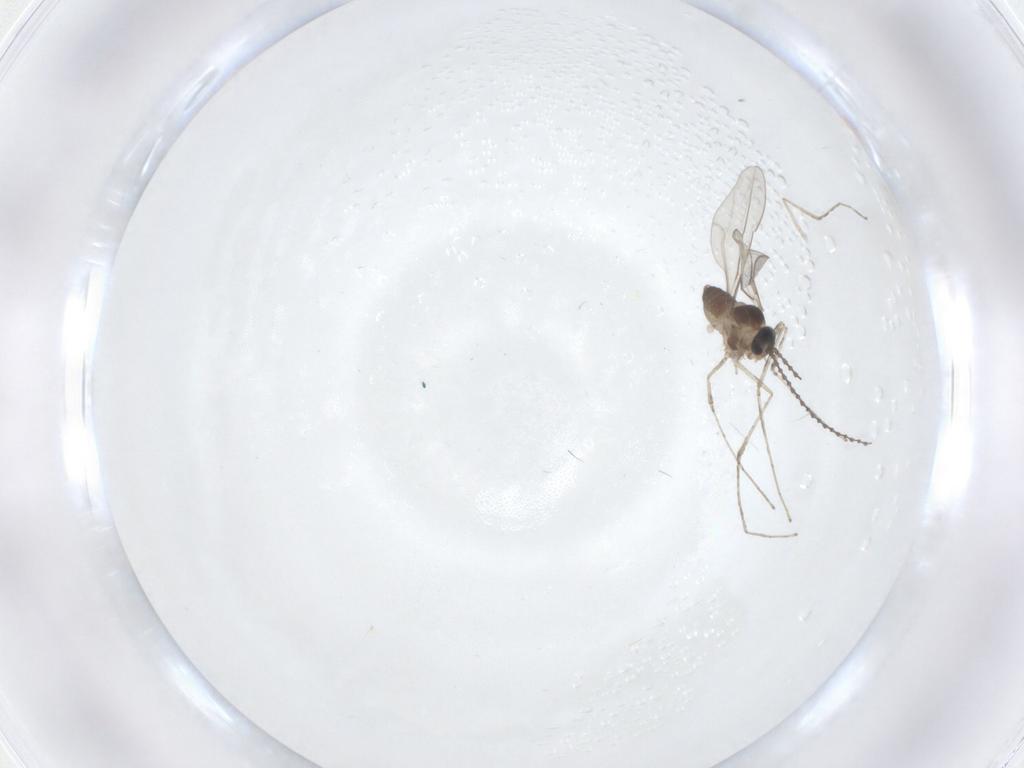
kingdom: Animalia
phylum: Arthropoda
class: Insecta
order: Diptera
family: Cecidomyiidae
